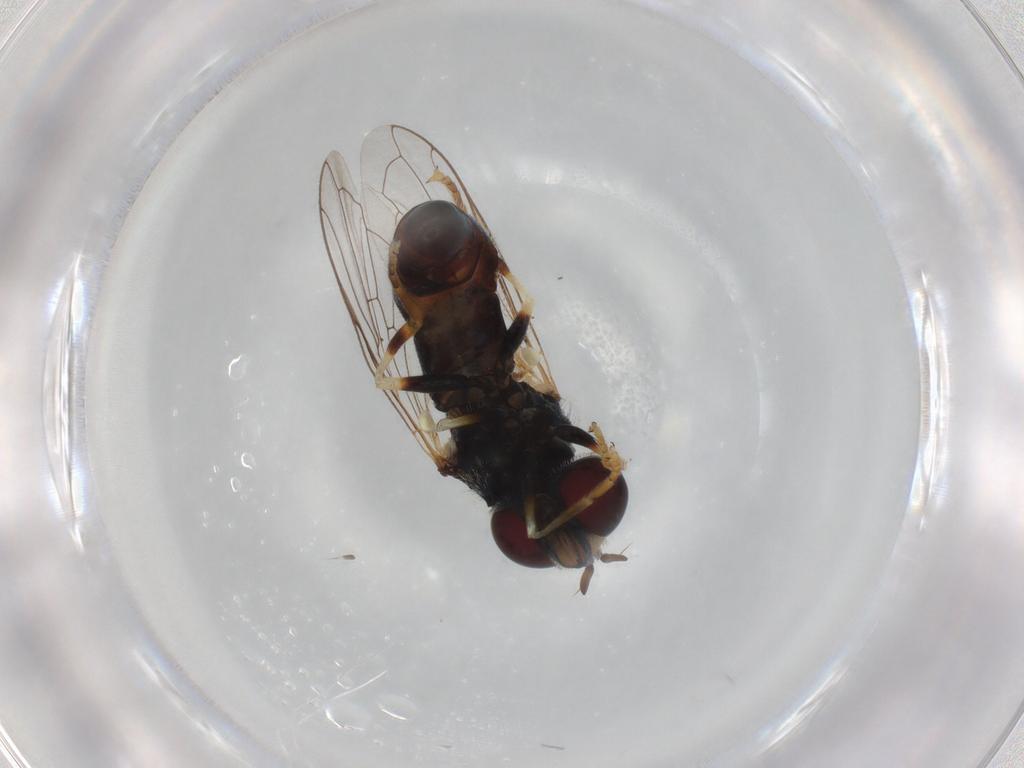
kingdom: Animalia
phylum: Arthropoda
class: Insecta
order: Diptera
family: Syrphidae
